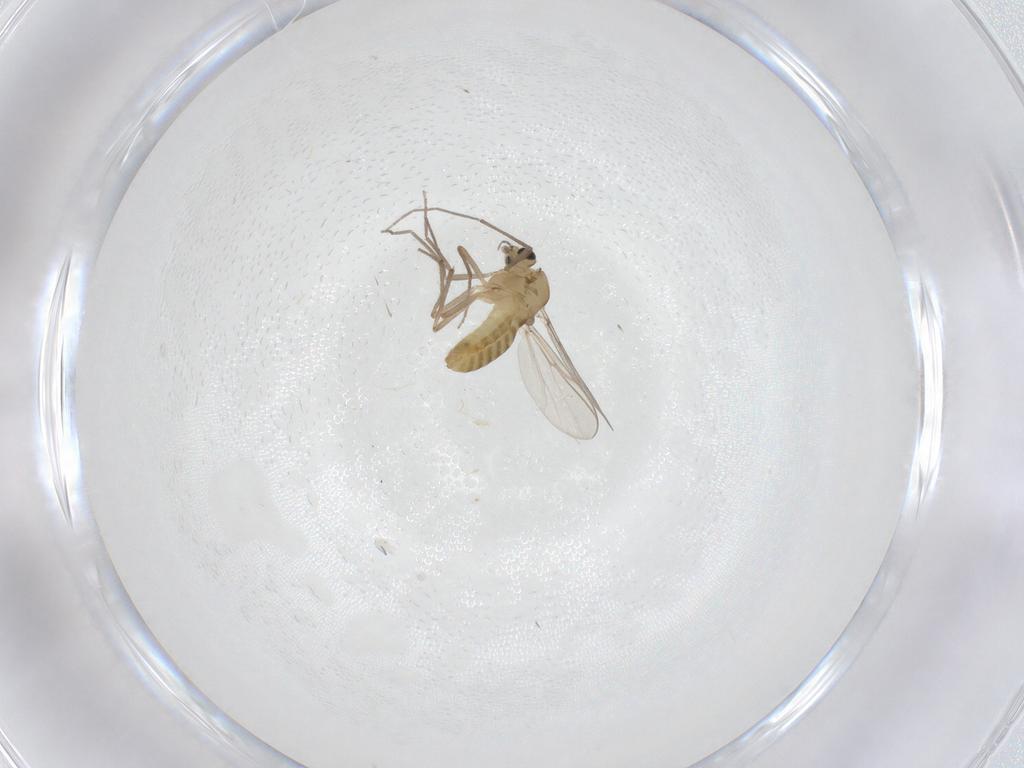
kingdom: Animalia
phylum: Arthropoda
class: Insecta
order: Diptera
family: Chironomidae
